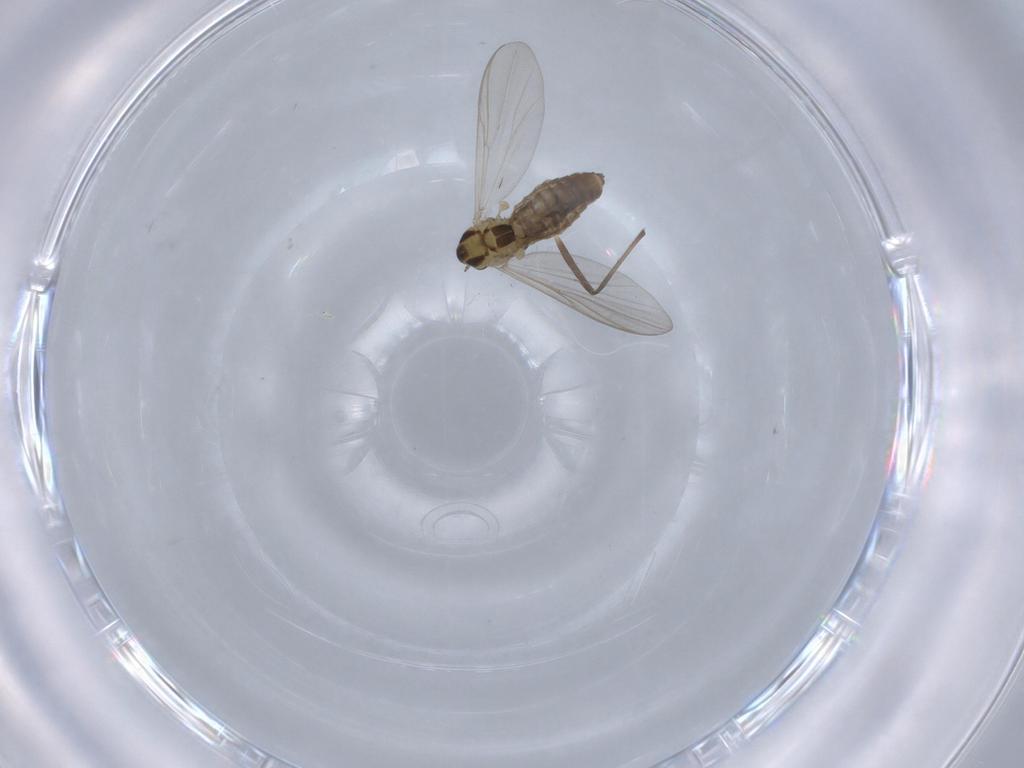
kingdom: Animalia
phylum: Arthropoda
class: Insecta
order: Diptera
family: Chironomidae
